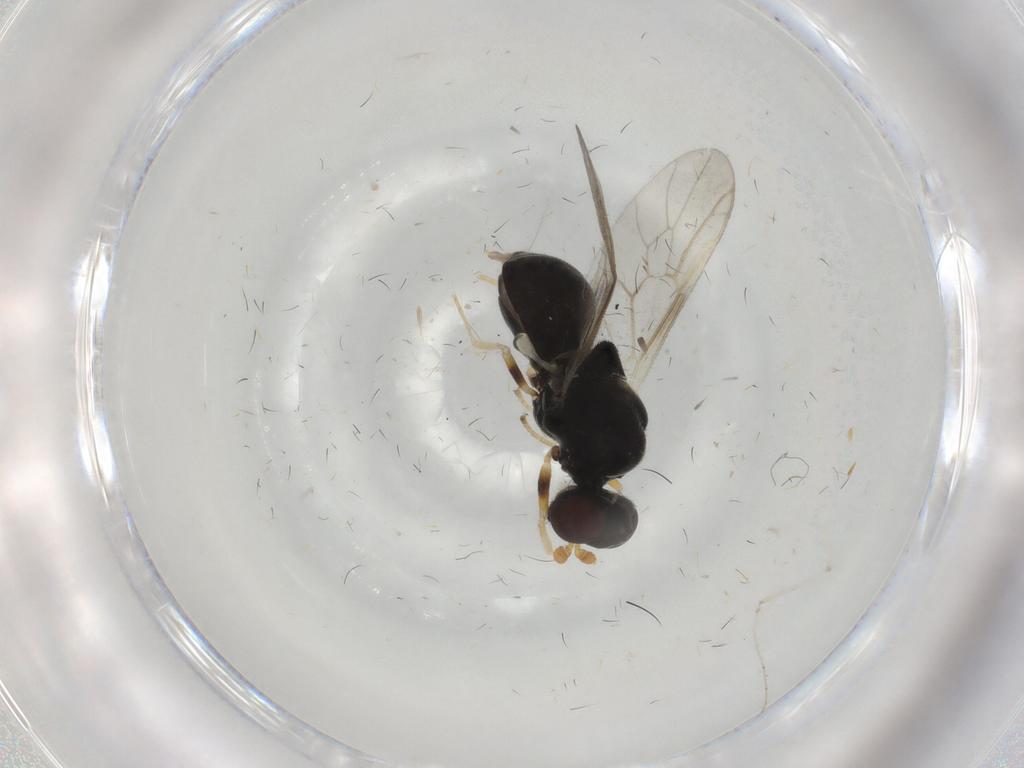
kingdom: Animalia
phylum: Arthropoda
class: Insecta
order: Diptera
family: Stratiomyidae
